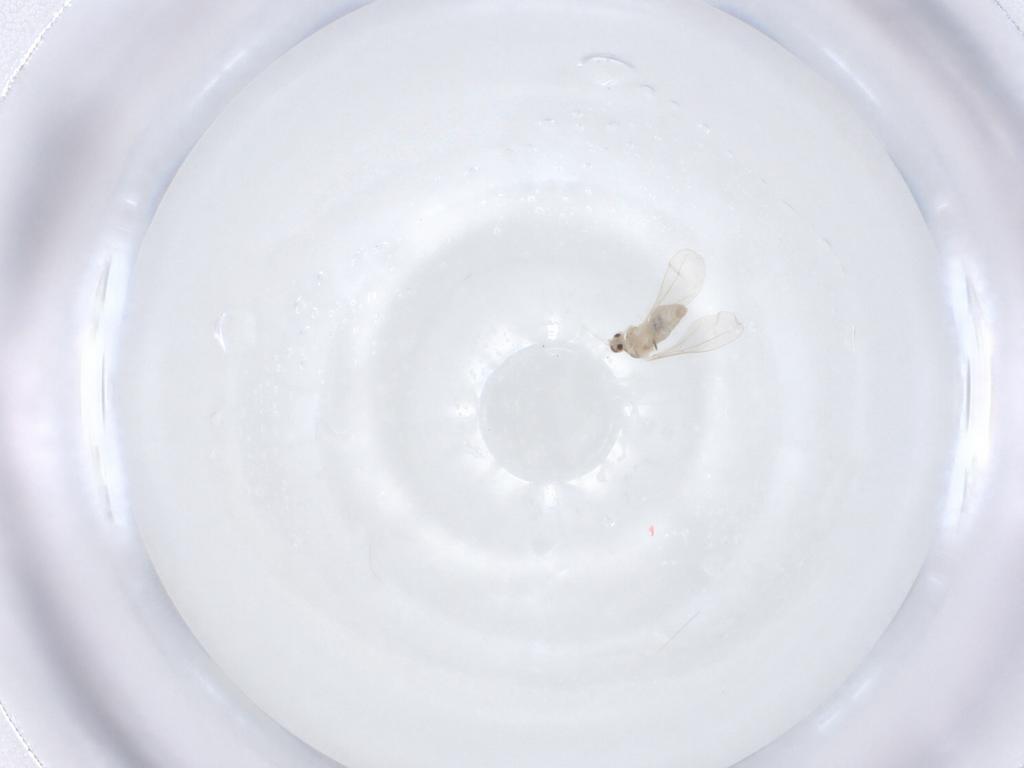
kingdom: Animalia
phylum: Arthropoda
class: Insecta
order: Diptera
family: Cecidomyiidae
